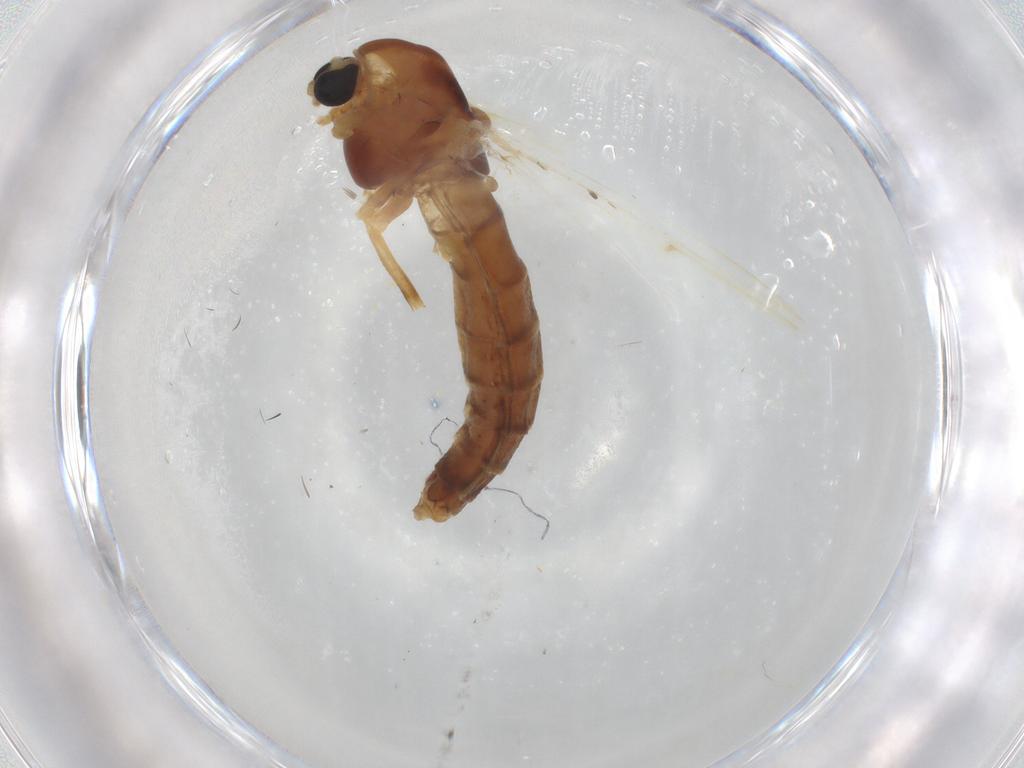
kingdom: Animalia
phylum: Arthropoda
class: Insecta
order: Diptera
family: Chironomidae
